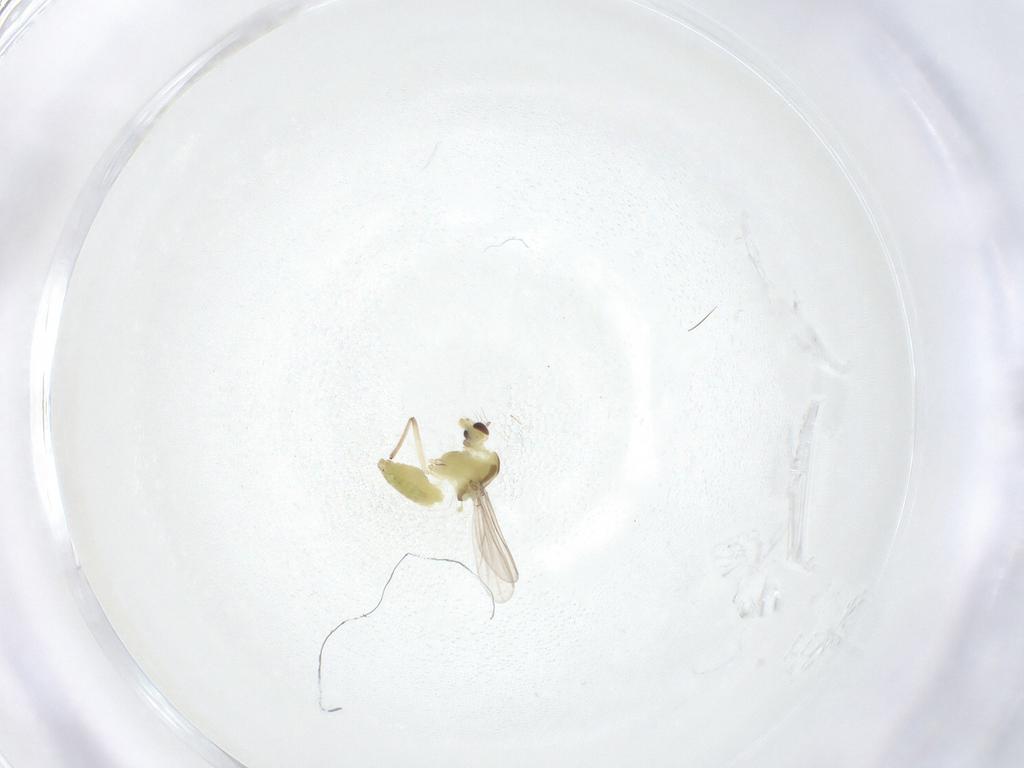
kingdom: Animalia
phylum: Arthropoda
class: Insecta
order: Diptera
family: Chironomidae
